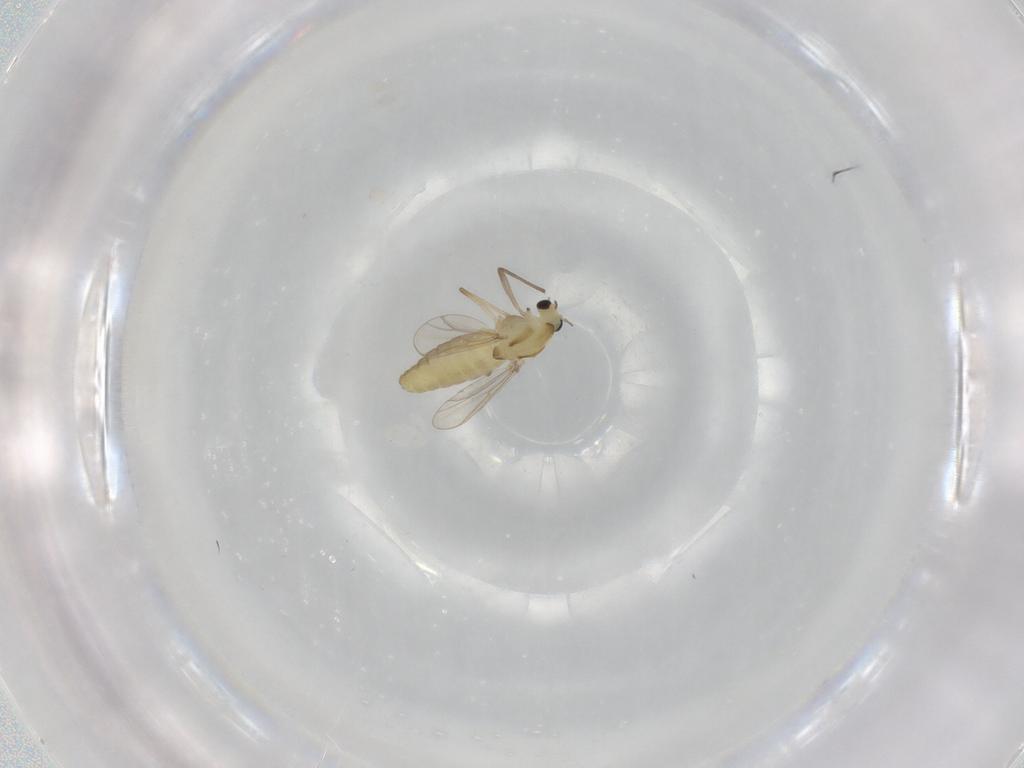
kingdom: Animalia
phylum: Arthropoda
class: Insecta
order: Diptera
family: Chironomidae
